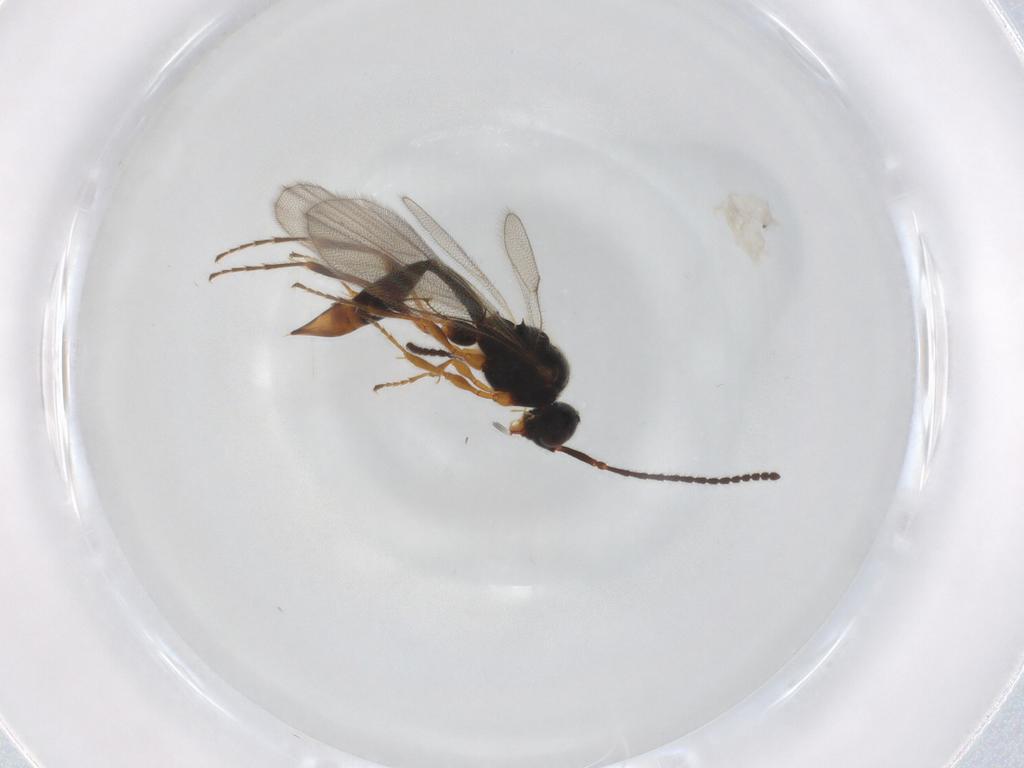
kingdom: Animalia
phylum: Arthropoda
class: Insecta
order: Hymenoptera
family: Diapriidae
